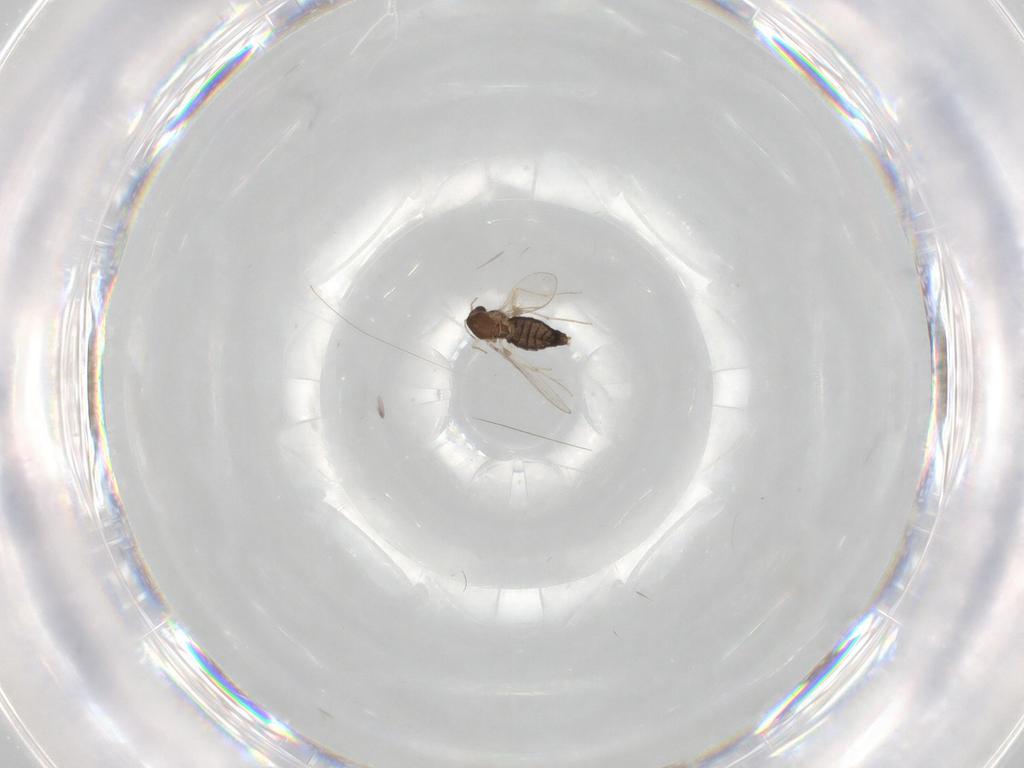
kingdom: Animalia
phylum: Arthropoda
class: Insecta
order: Diptera
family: Chironomidae
